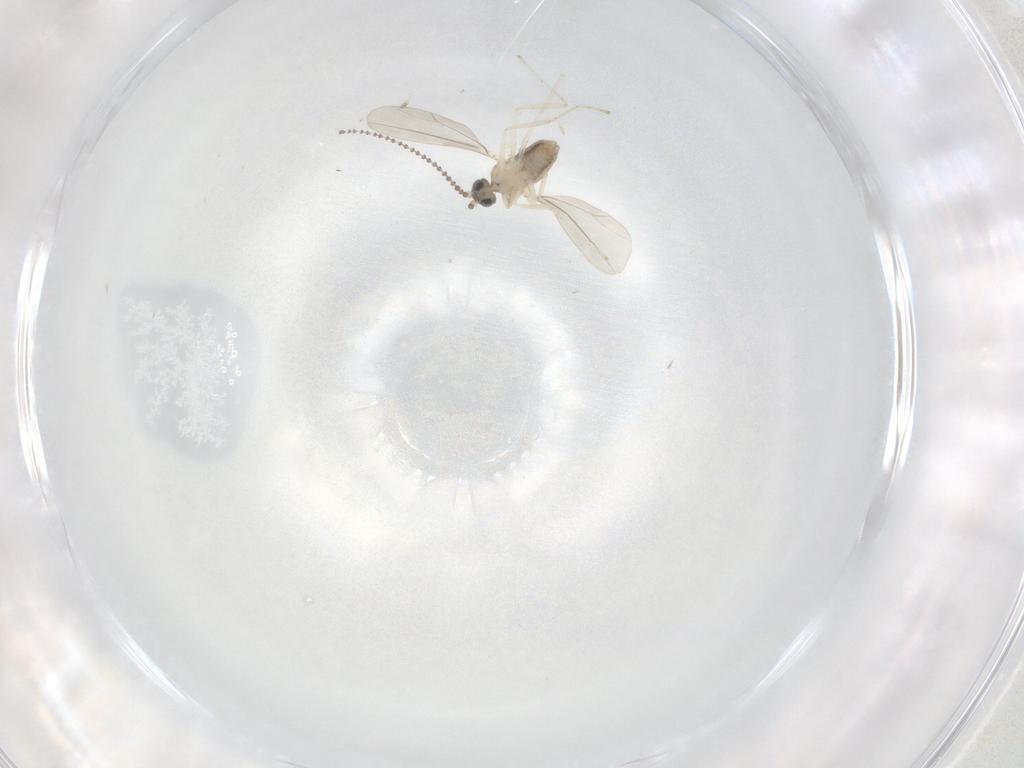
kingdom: Animalia
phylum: Arthropoda
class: Insecta
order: Diptera
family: Cecidomyiidae
